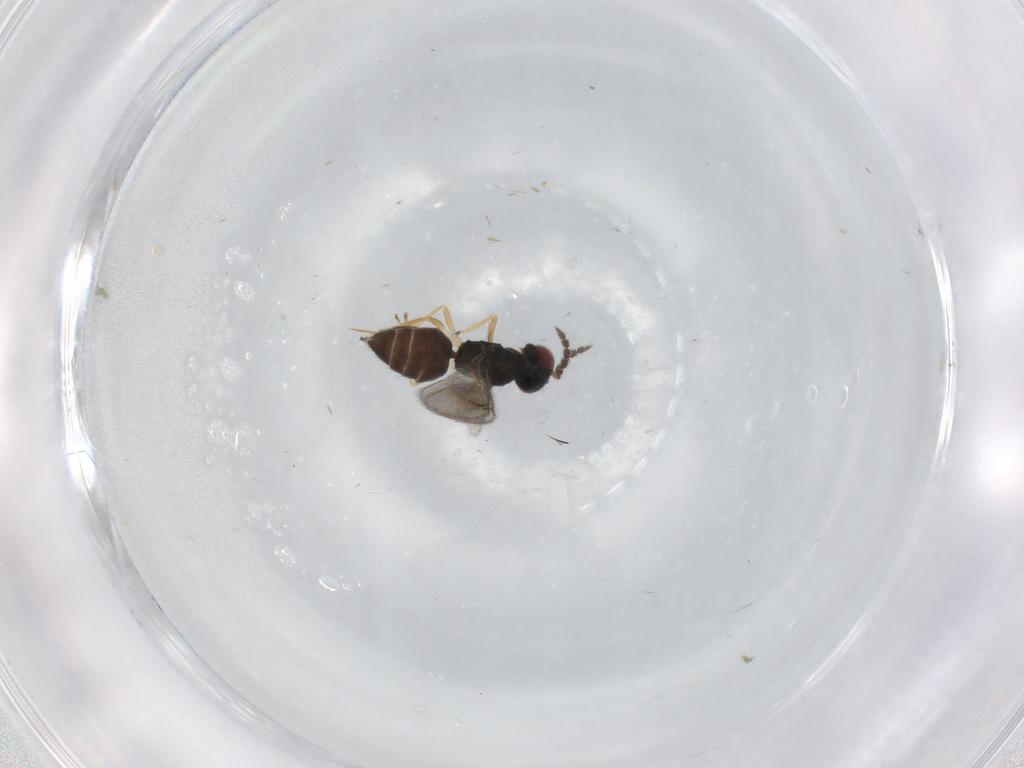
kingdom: Animalia
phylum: Arthropoda
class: Insecta
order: Hymenoptera
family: Eulophidae
